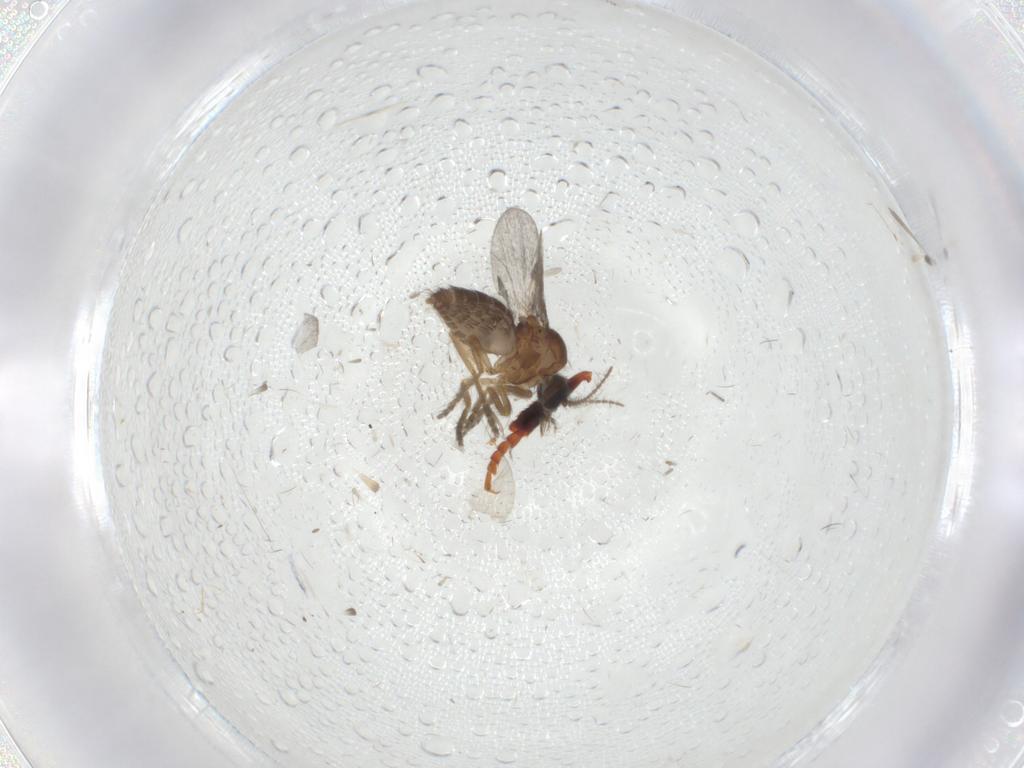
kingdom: Animalia
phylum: Arthropoda
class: Insecta
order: Diptera
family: Ceratopogonidae
